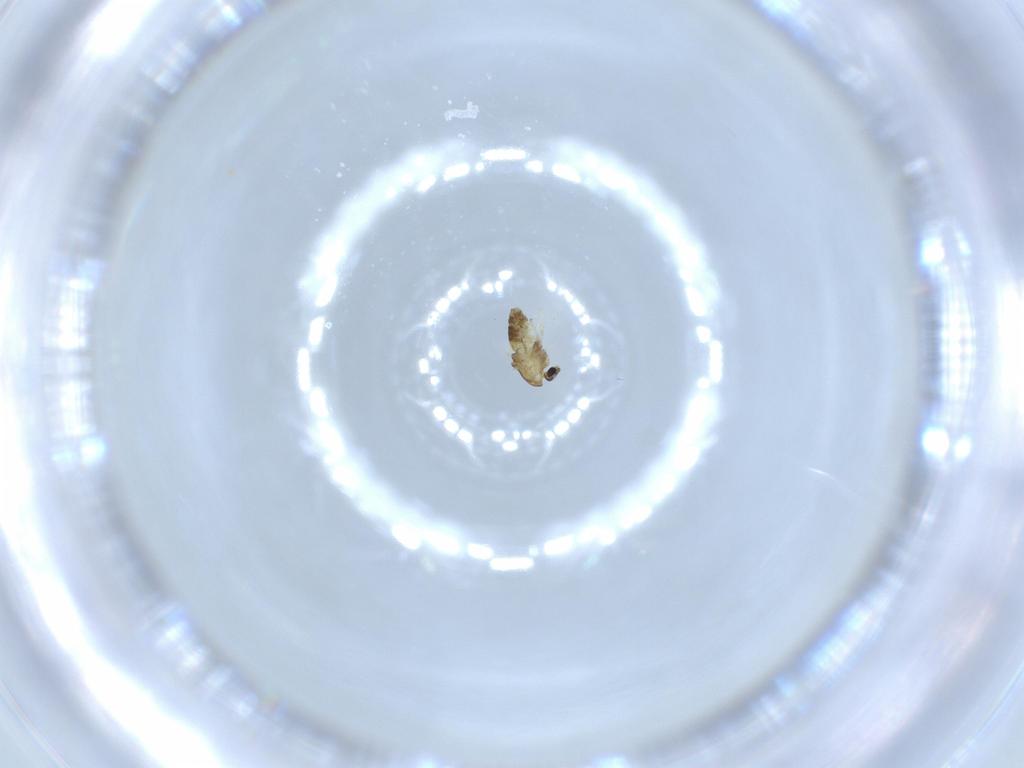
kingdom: Animalia
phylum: Arthropoda
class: Insecta
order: Diptera
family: Chironomidae
